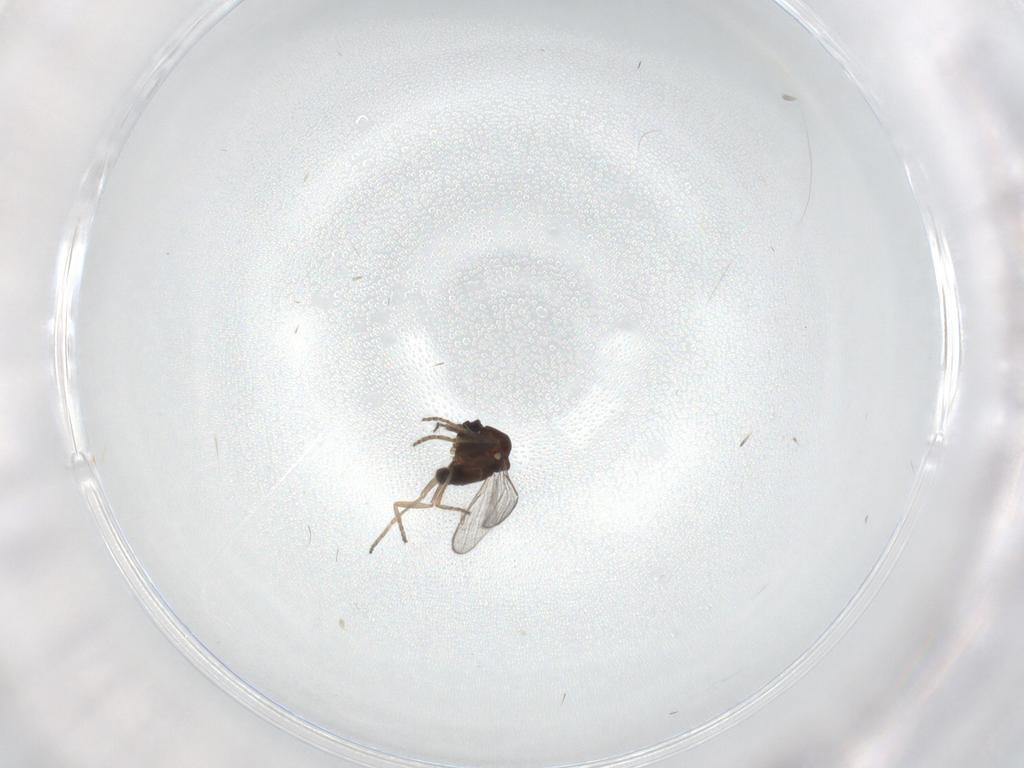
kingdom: Animalia
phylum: Arthropoda
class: Insecta
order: Diptera
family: Ceratopogonidae
